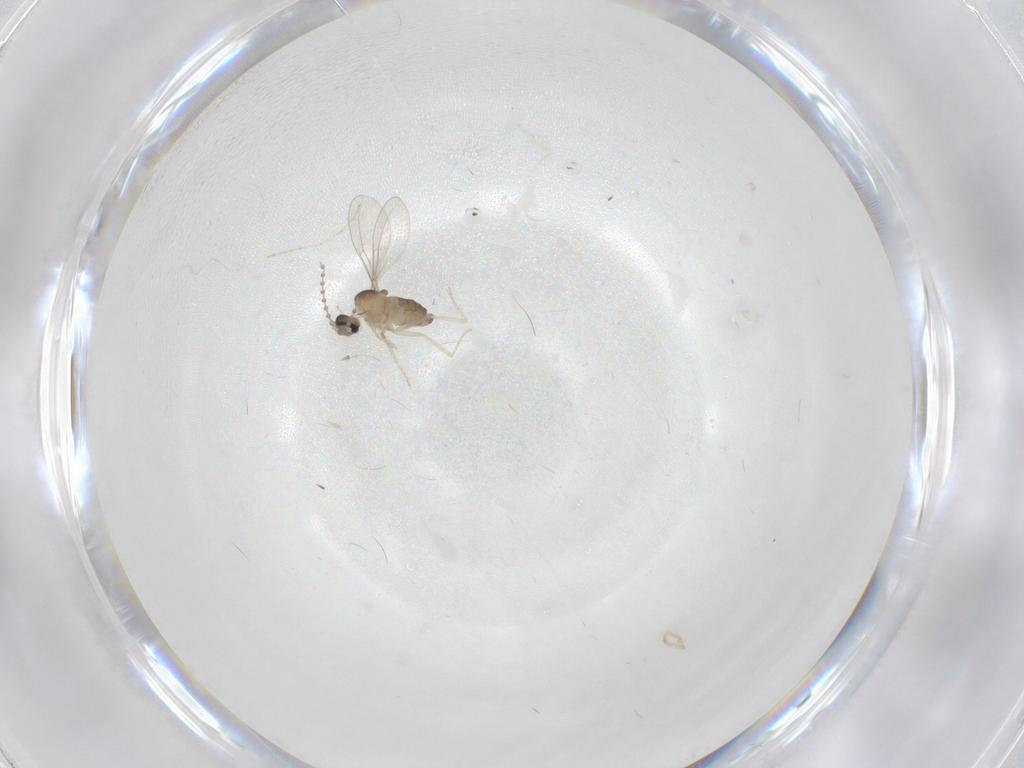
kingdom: Animalia
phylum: Arthropoda
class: Insecta
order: Diptera
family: Cecidomyiidae
